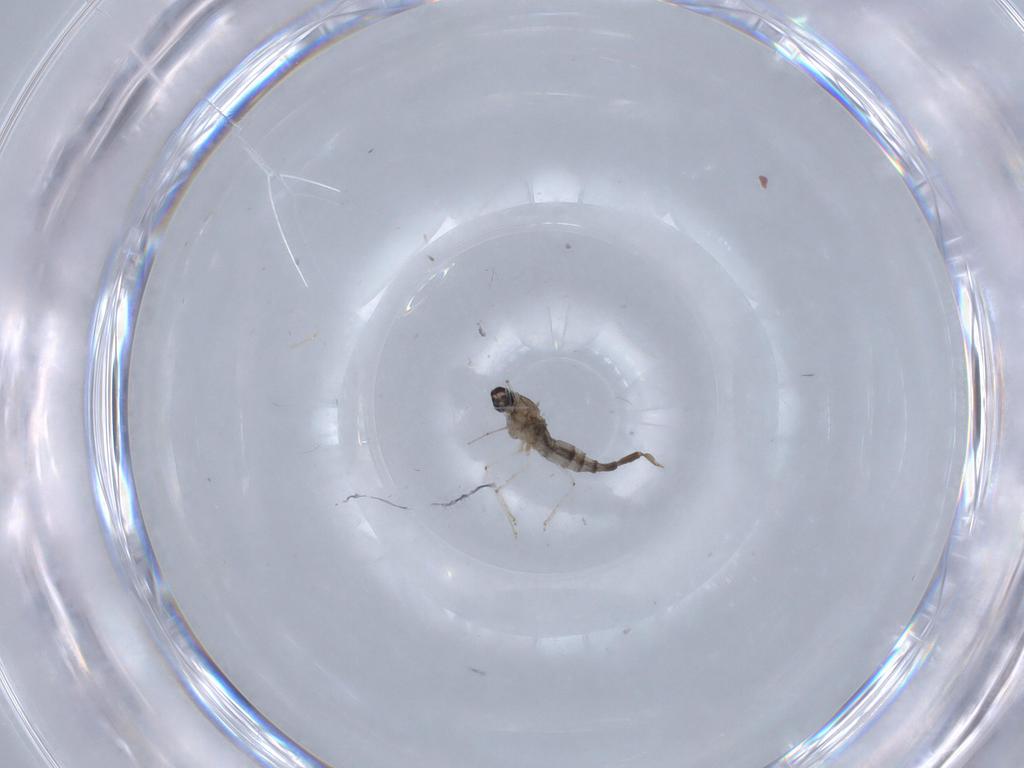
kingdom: Animalia
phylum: Arthropoda
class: Insecta
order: Diptera
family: Cecidomyiidae
